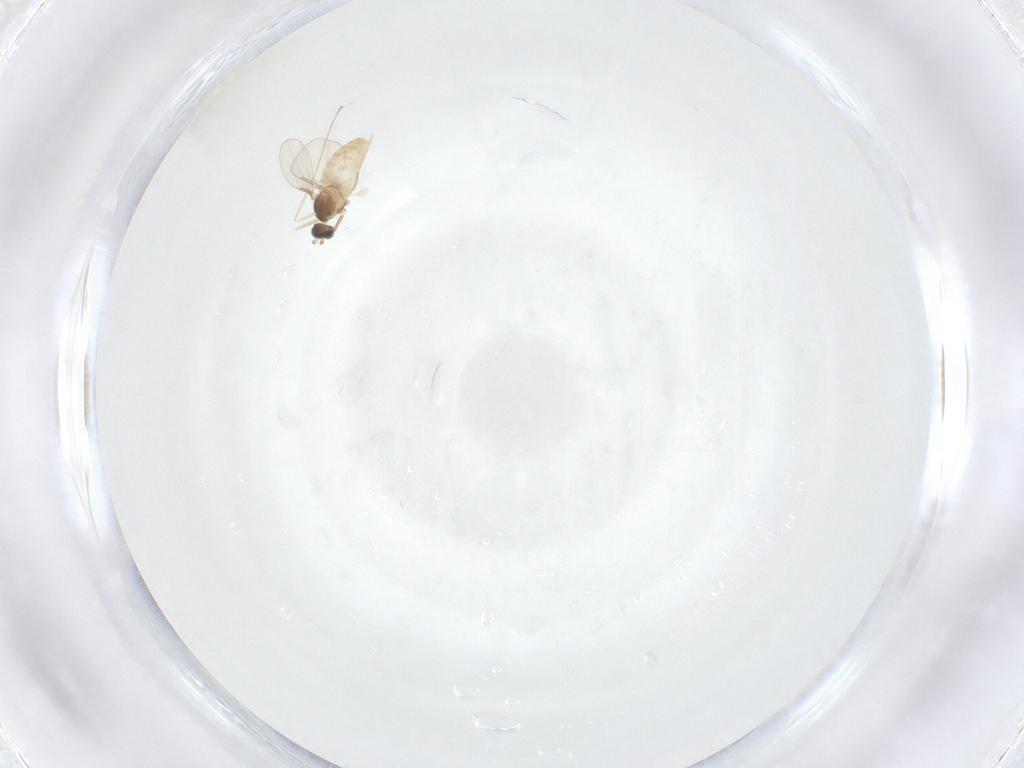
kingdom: Animalia
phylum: Arthropoda
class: Insecta
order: Diptera
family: Cecidomyiidae
